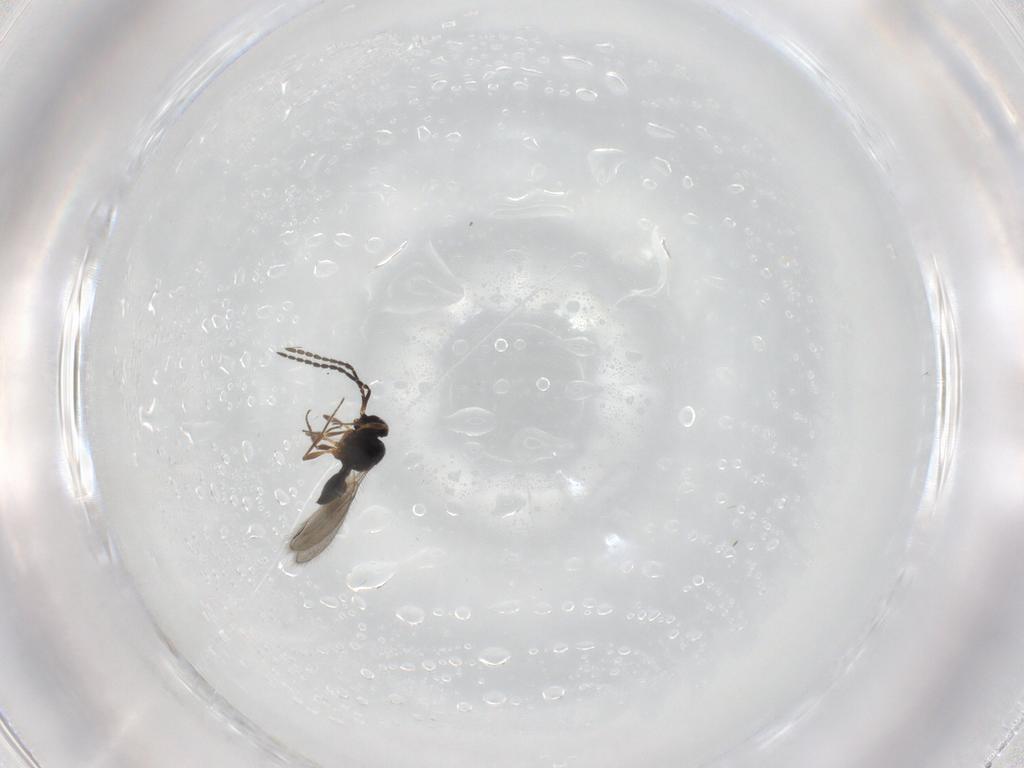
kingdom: Animalia
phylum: Arthropoda
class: Insecta
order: Hymenoptera
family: Scelionidae
